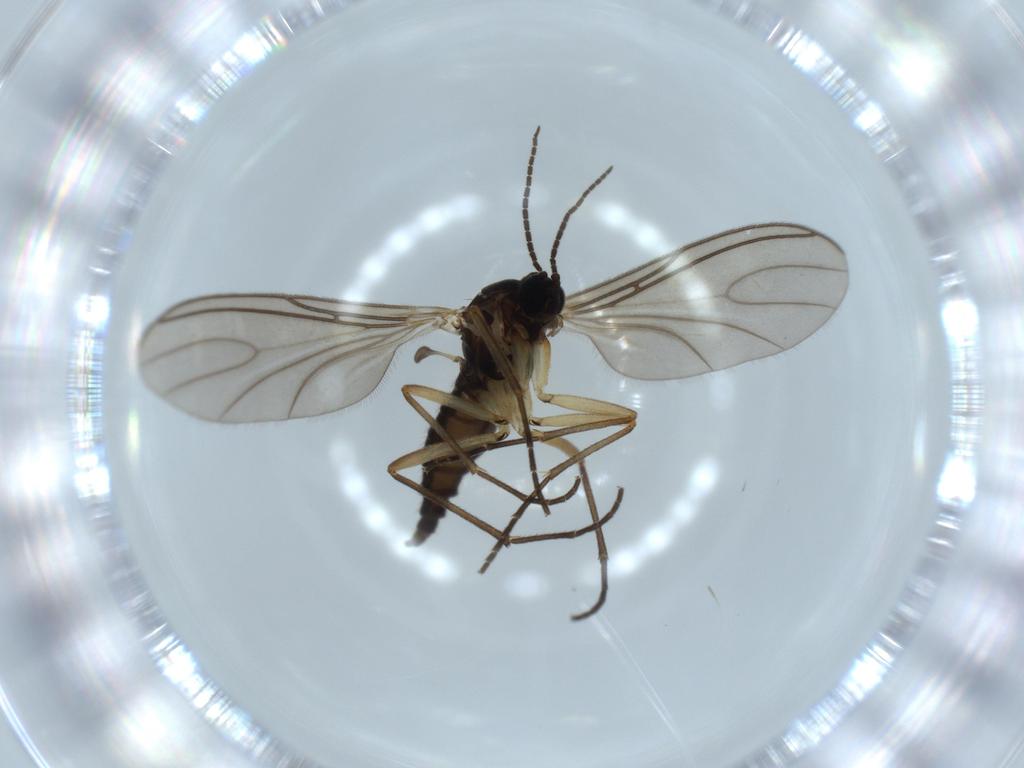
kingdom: Animalia
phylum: Arthropoda
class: Insecta
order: Diptera
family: Sciaridae
